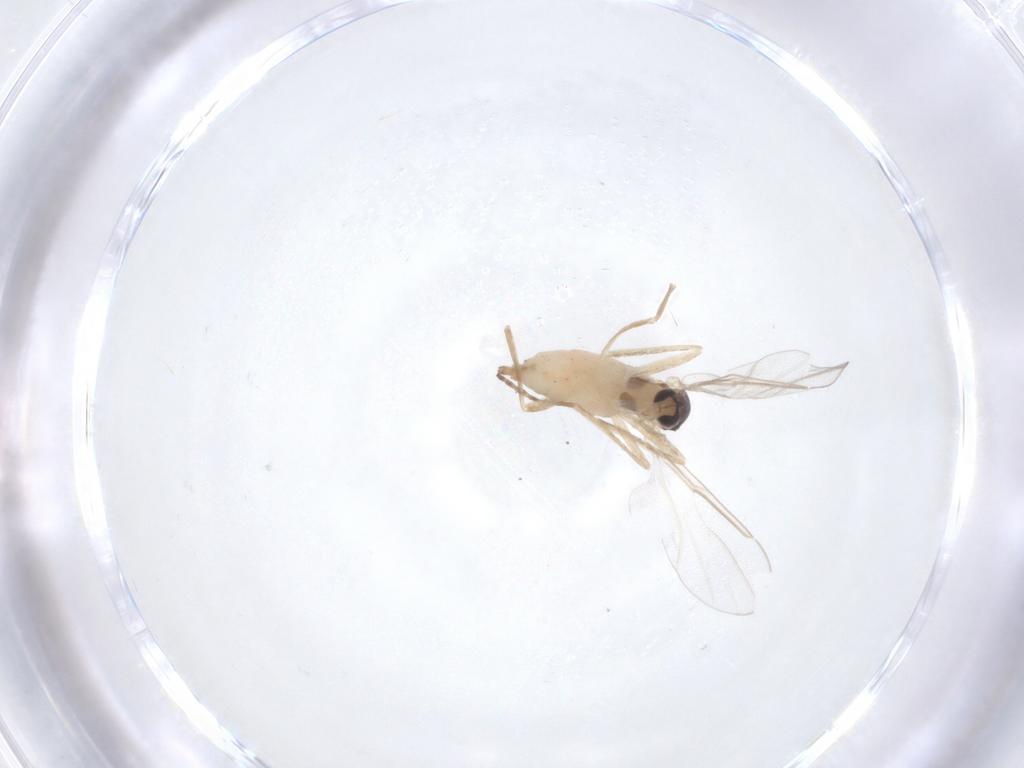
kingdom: Animalia
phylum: Arthropoda
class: Insecta
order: Diptera
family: Cecidomyiidae
